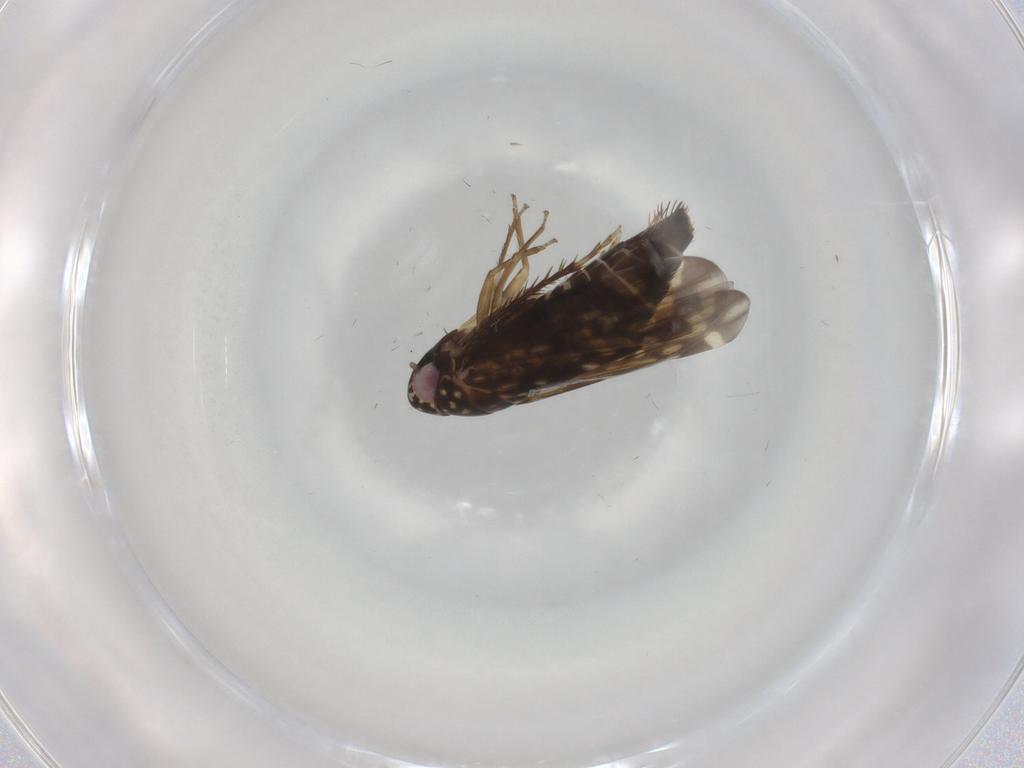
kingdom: Animalia
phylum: Arthropoda
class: Insecta
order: Hemiptera
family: Cicadellidae
